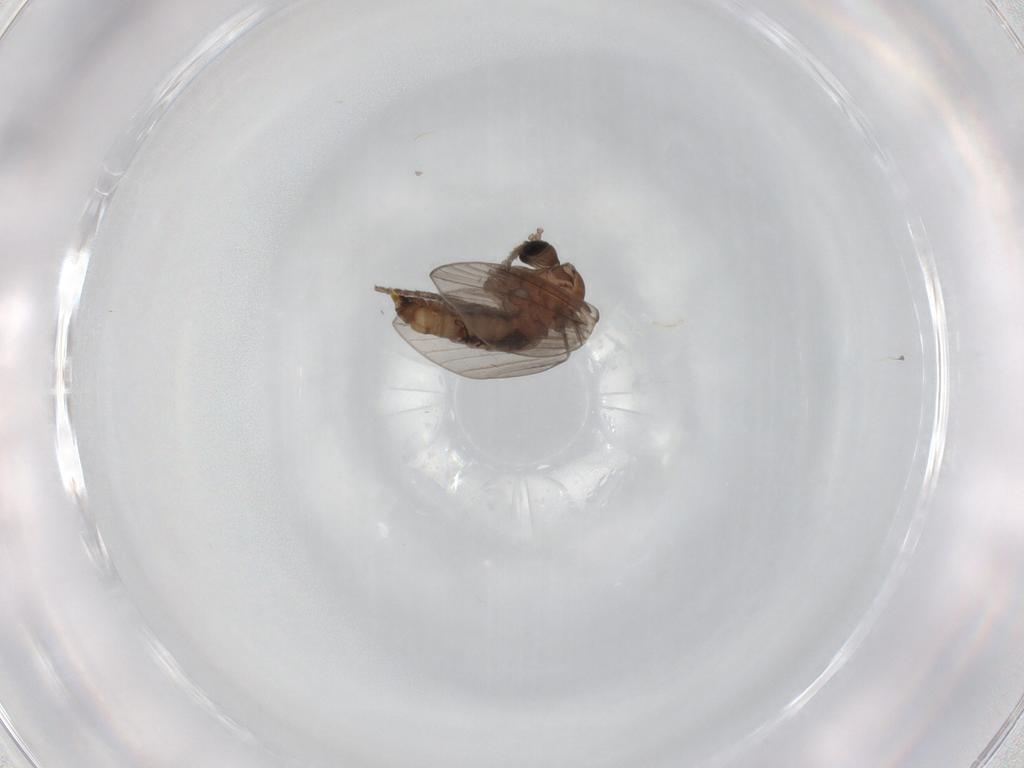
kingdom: Animalia
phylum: Arthropoda
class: Insecta
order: Diptera
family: Psychodidae
